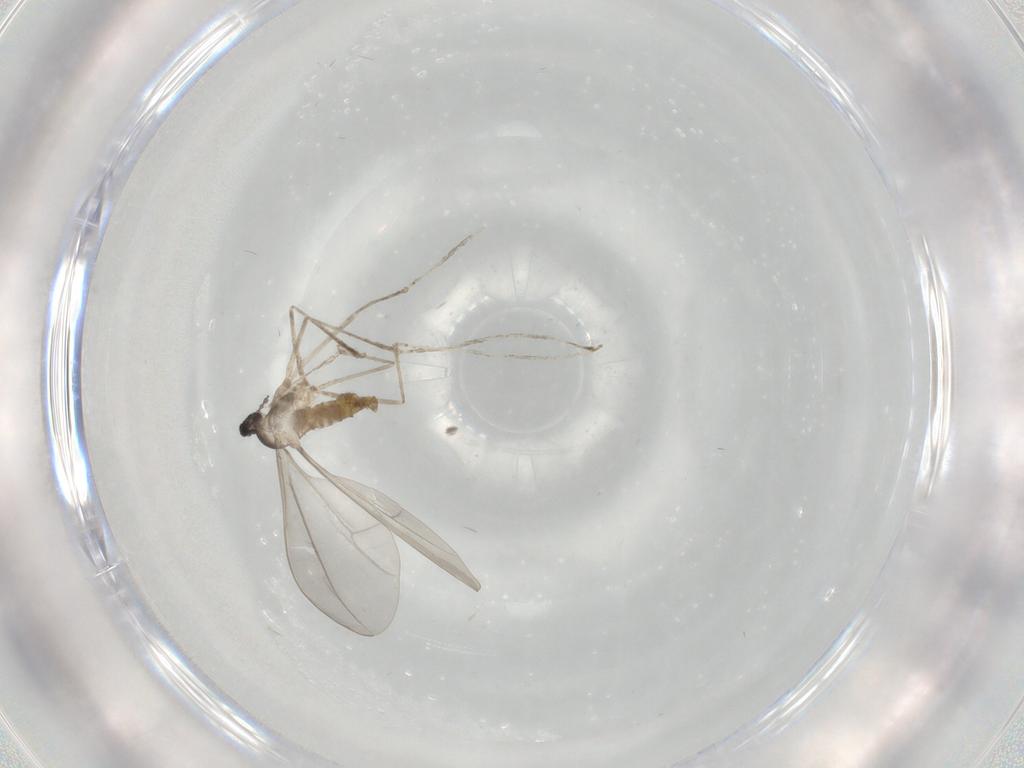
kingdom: Animalia
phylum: Arthropoda
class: Insecta
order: Diptera
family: Cecidomyiidae
